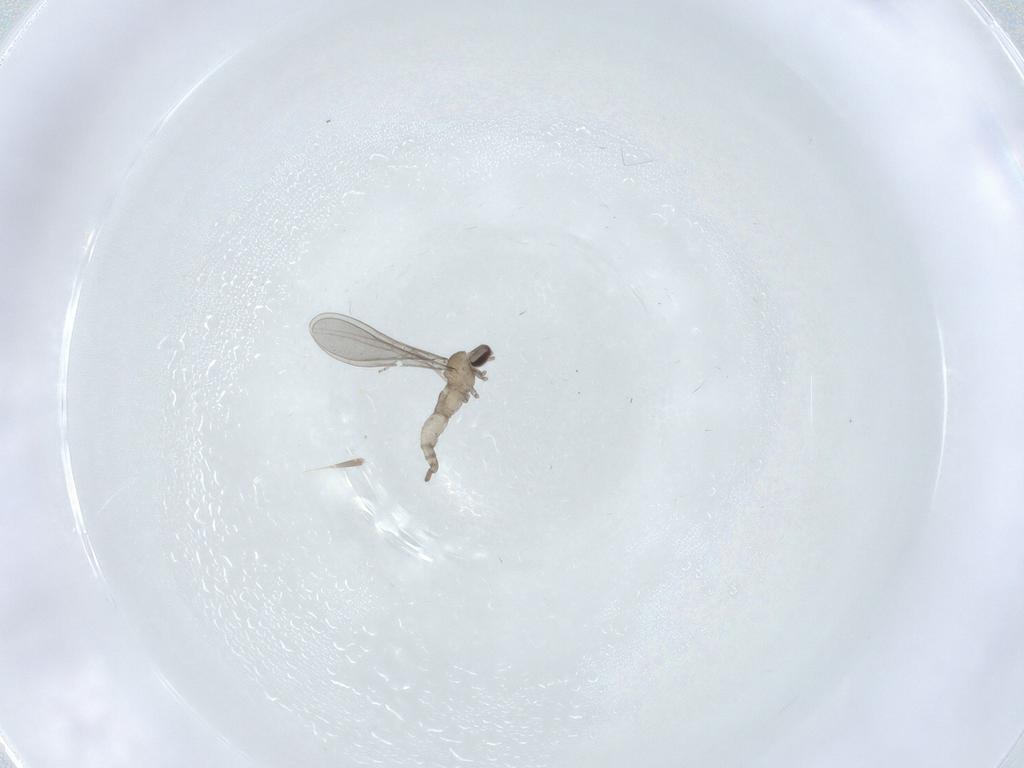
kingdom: Animalia
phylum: Arthropoda
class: Insecta
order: Diptera
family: Cecidomyiidae
